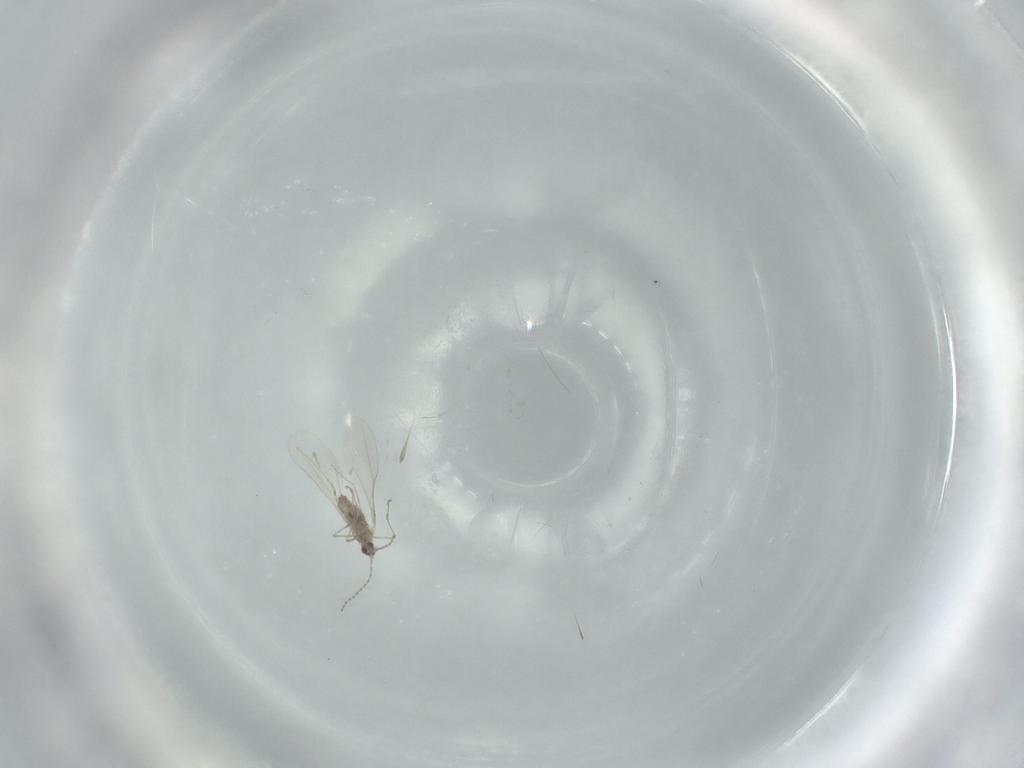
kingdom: Animalia
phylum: Arthropoda
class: Insecta
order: Diptera
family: Cecidomyiidae
